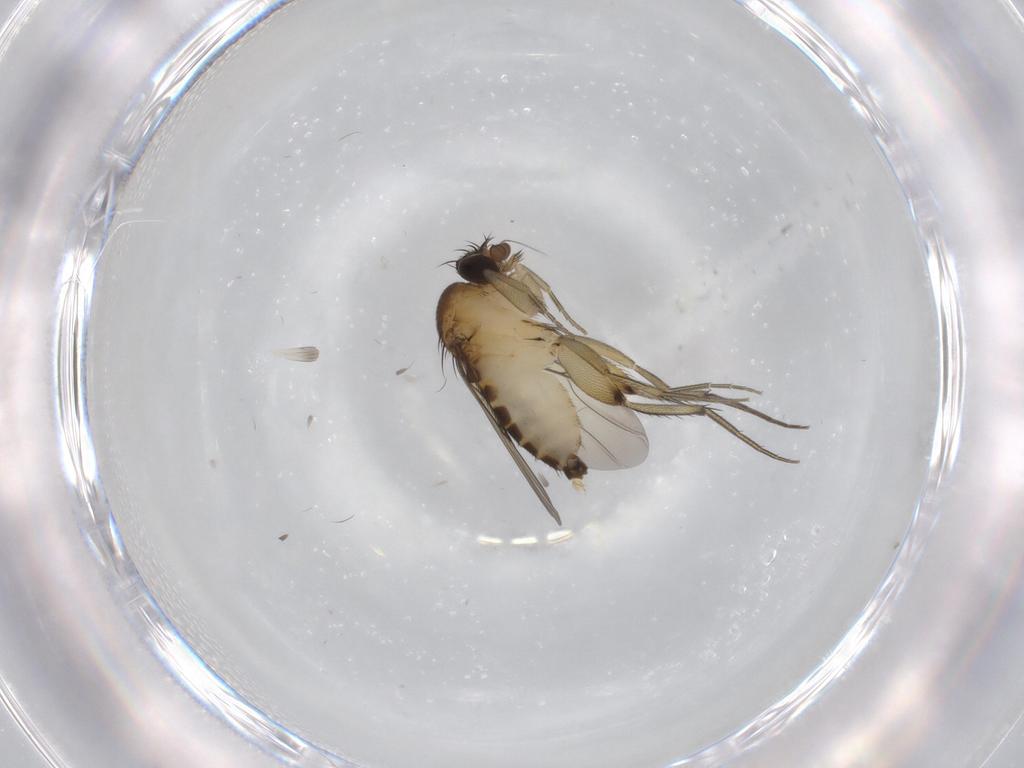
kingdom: Animalia
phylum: Arthropoda
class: Insecta
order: Diptera
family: Phoridae
